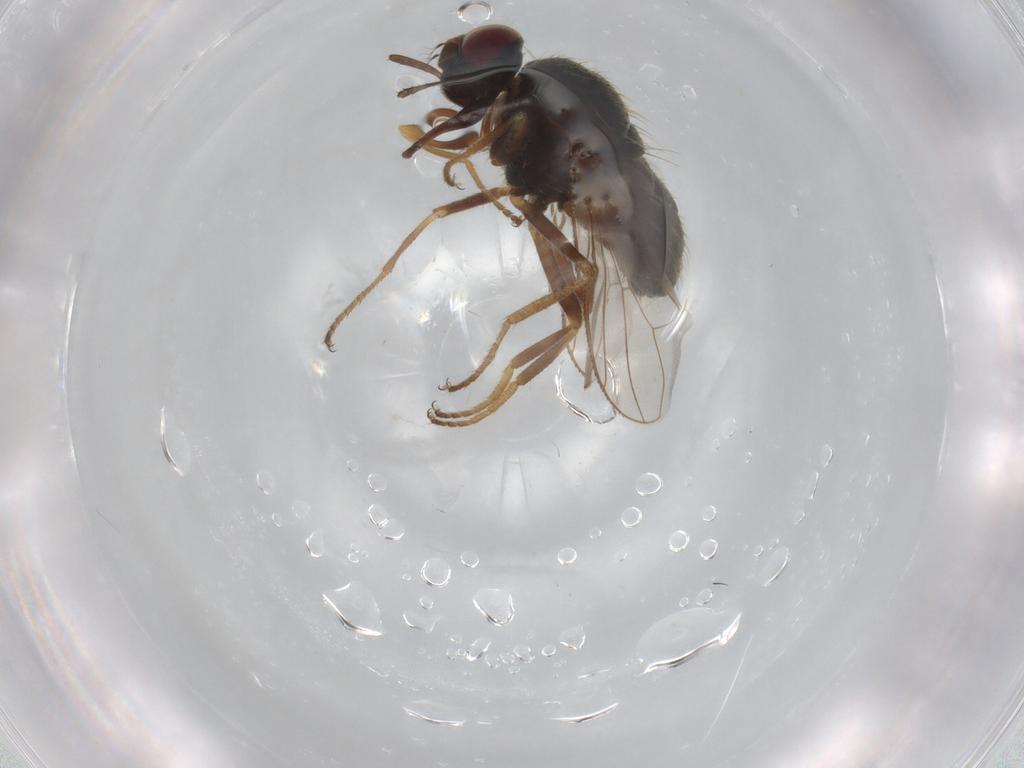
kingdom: Animalia
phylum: Arthropoda
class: Insecta
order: Diptera
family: Muscidae
